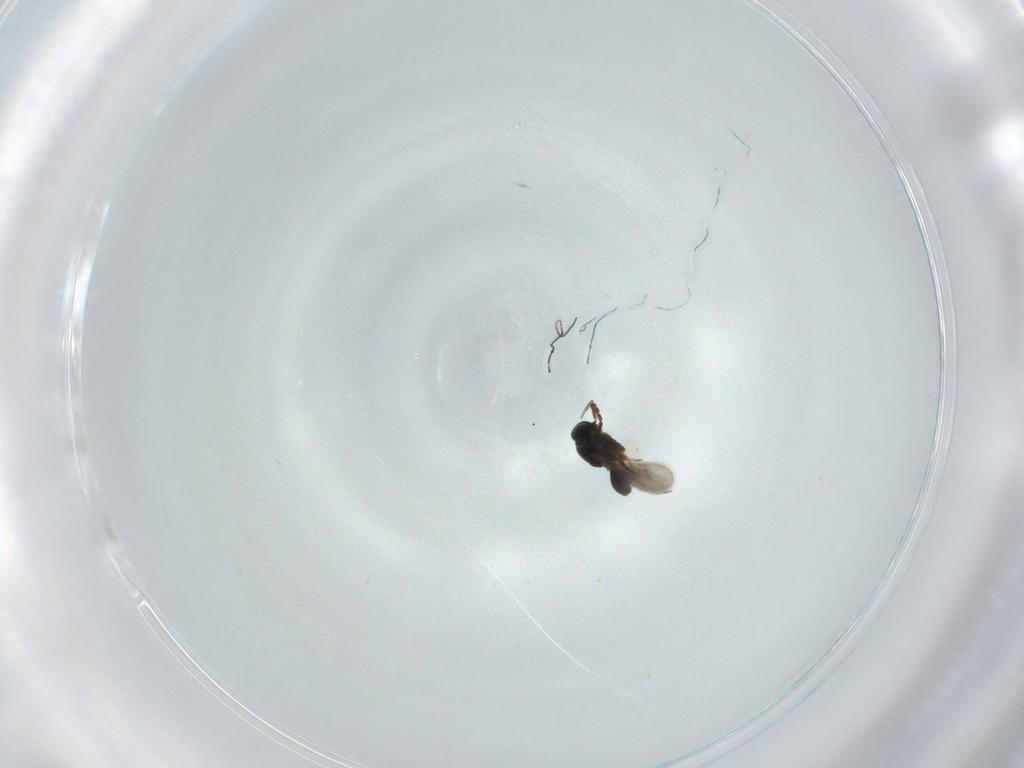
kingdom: Animalia
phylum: Arthropoda
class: Insecta
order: Hymenoptera
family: Scelionidae
